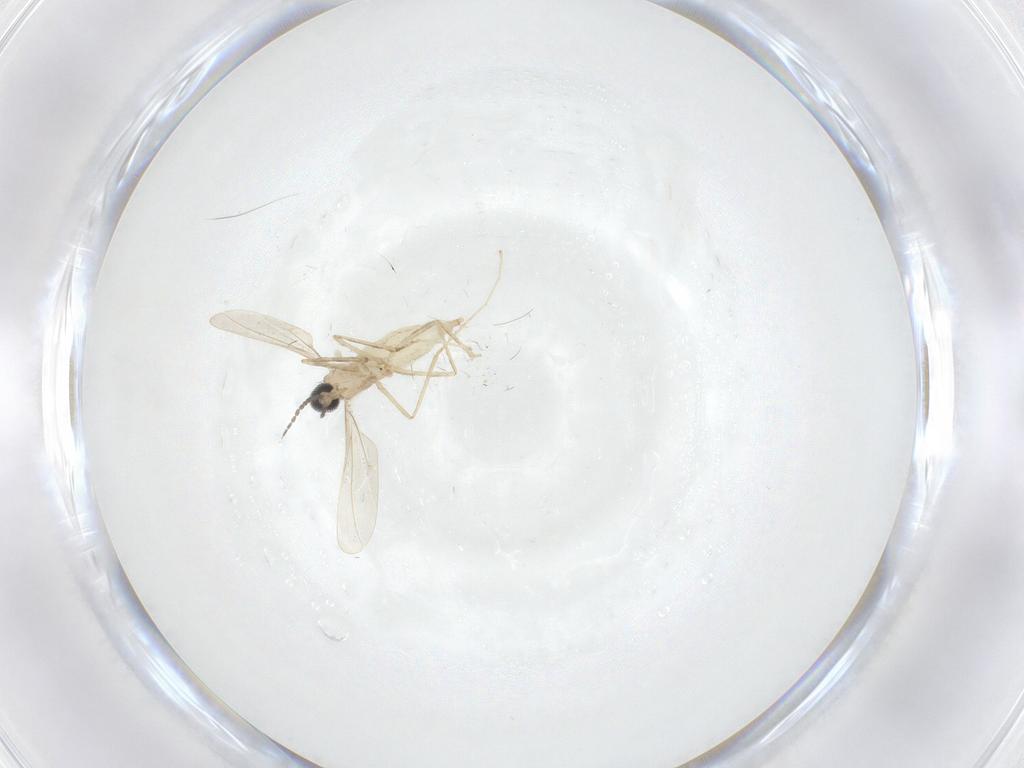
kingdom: Animalia
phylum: Arthropoda
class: Insecta
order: Diptera
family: Cecidomyiidae
